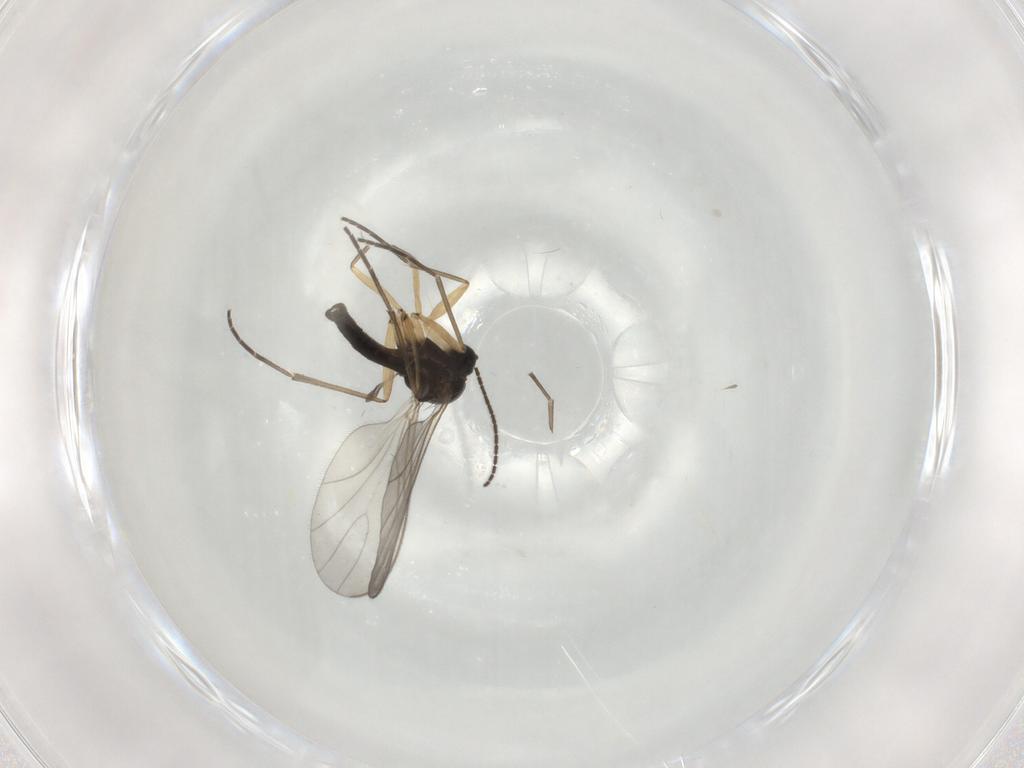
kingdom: Animalia
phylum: Arthropoda
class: Insecta
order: Diptera
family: Sciaridae
